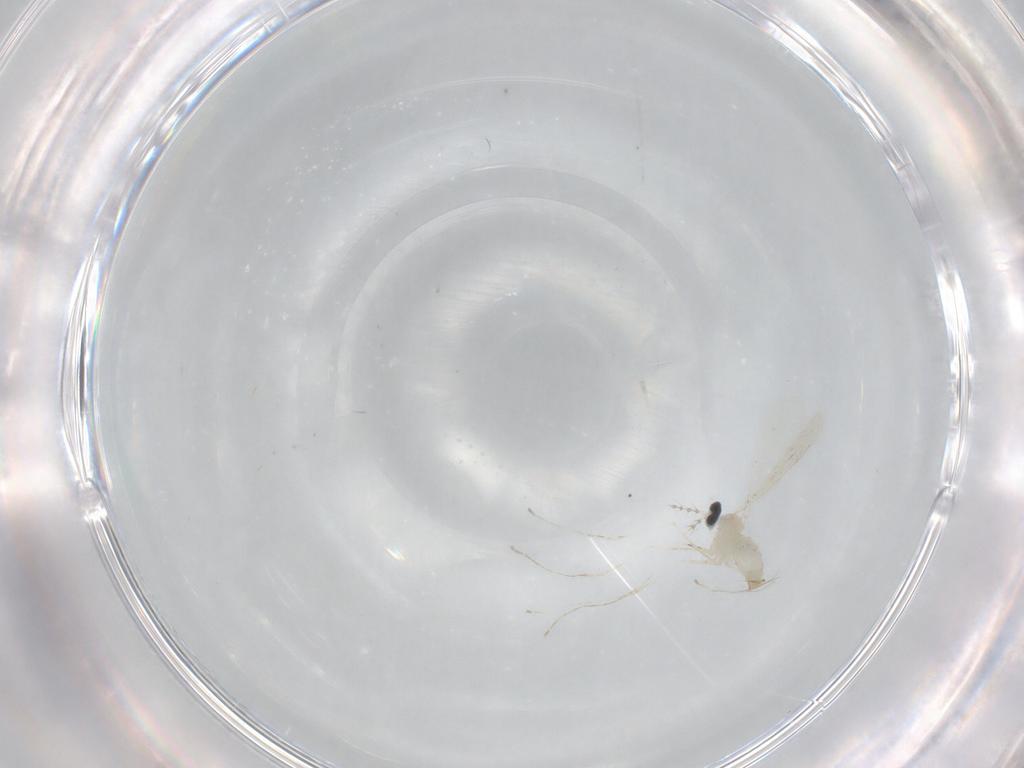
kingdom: Animalia
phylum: Arthropoda
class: Insecta
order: Diptera
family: Cecidomyiidae
